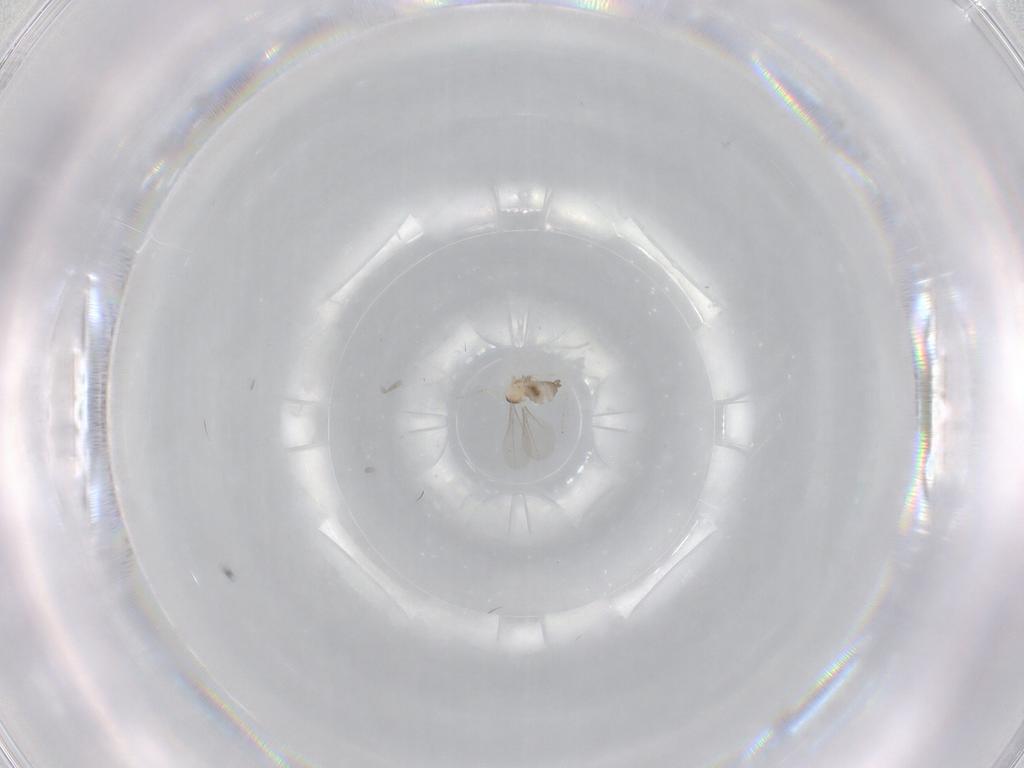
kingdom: Animalia
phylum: Arthropoda
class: Insecta
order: Diptera
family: Cecidomyiidae
